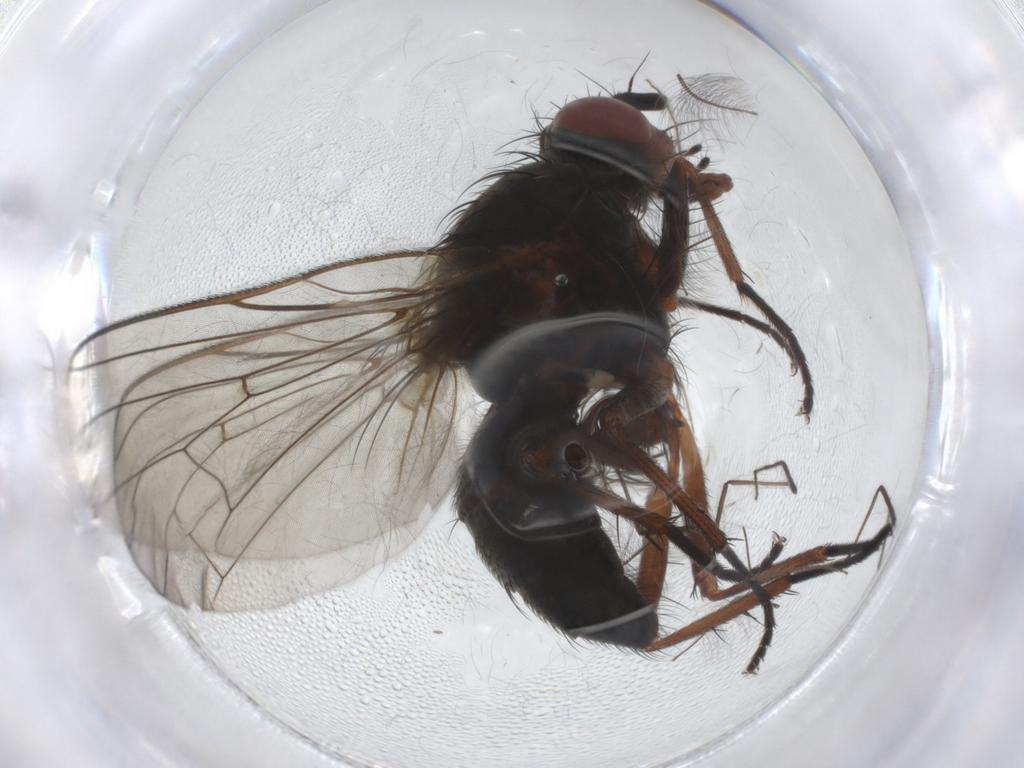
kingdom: Animalia
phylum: Arthropoda
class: Insecta
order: Diptera
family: Anthomyiidae
